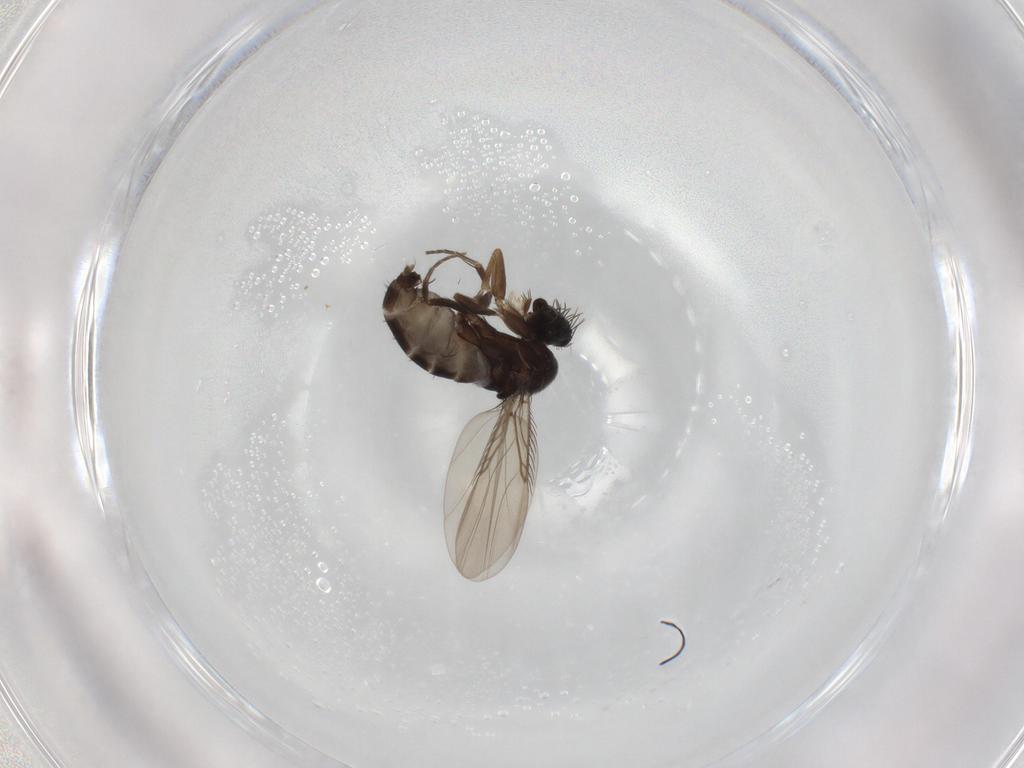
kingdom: Animalia
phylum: Arthropoda
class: Insecta
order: Diptera
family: Phoridae
